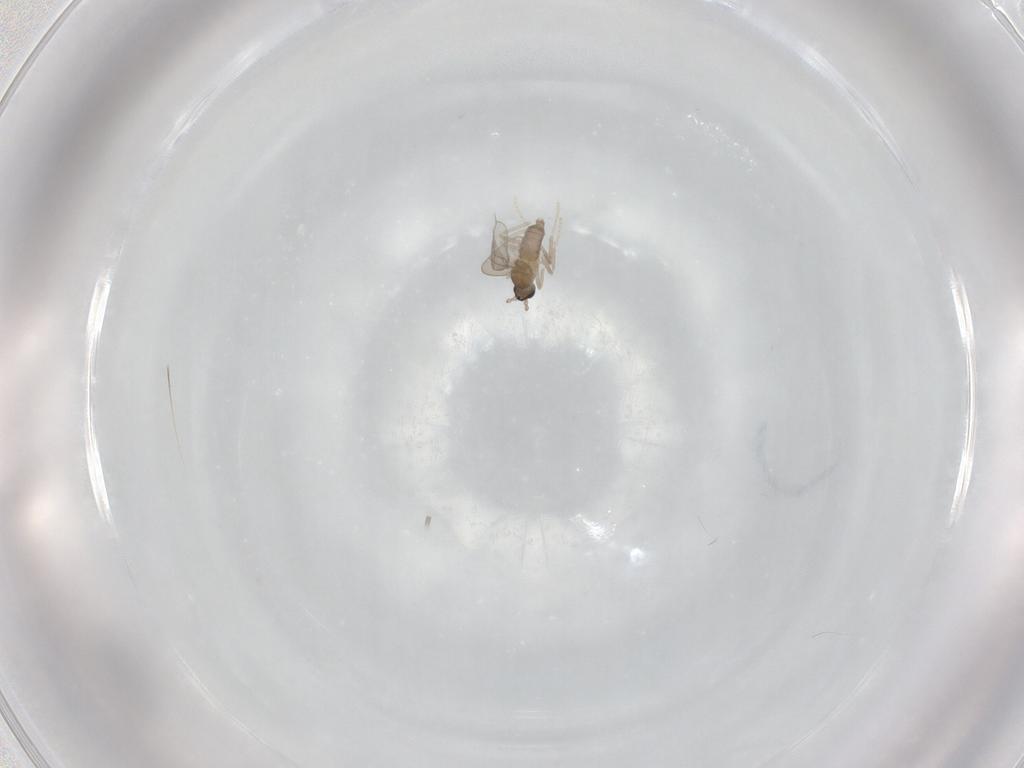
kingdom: Animalia
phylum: Arthropoda
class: Insecta
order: Diptera
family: Cecidomyiidae
